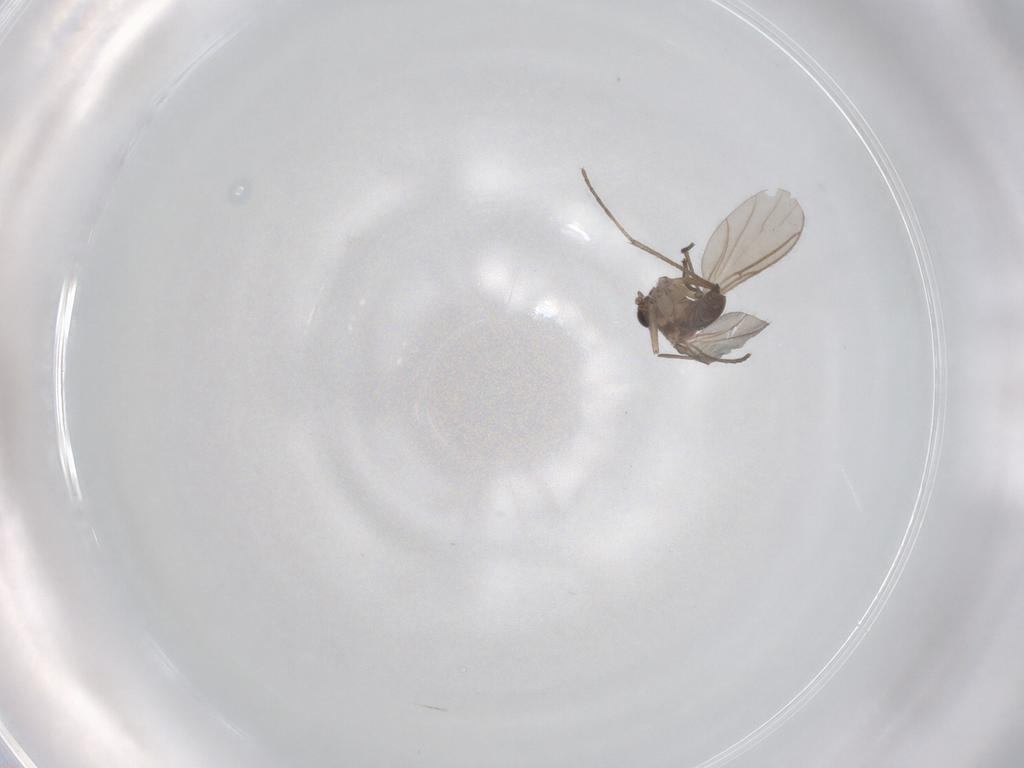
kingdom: Animalia
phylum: Arthropoda
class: Insecta
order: Diptera
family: Sciaridae
